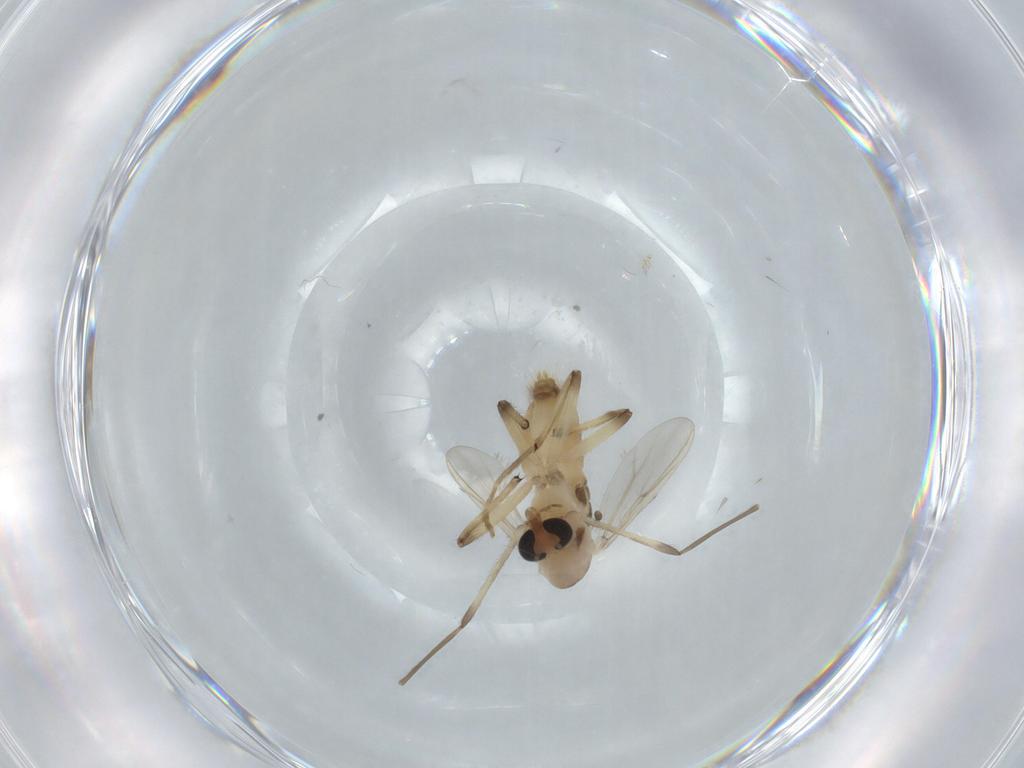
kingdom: Animalia
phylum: Arthropoda
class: Insecta
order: Diptera
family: Chironomidae
